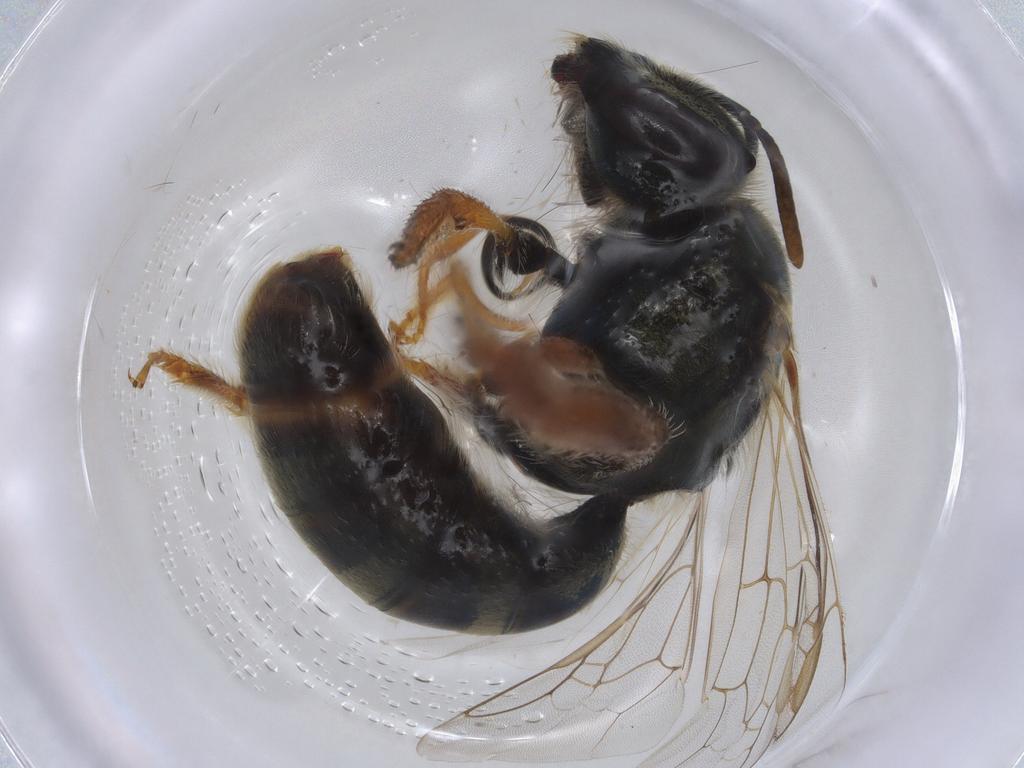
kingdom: Animalia
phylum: Arthropoda
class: Insecta
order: Hymenoptera
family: Halictidae
